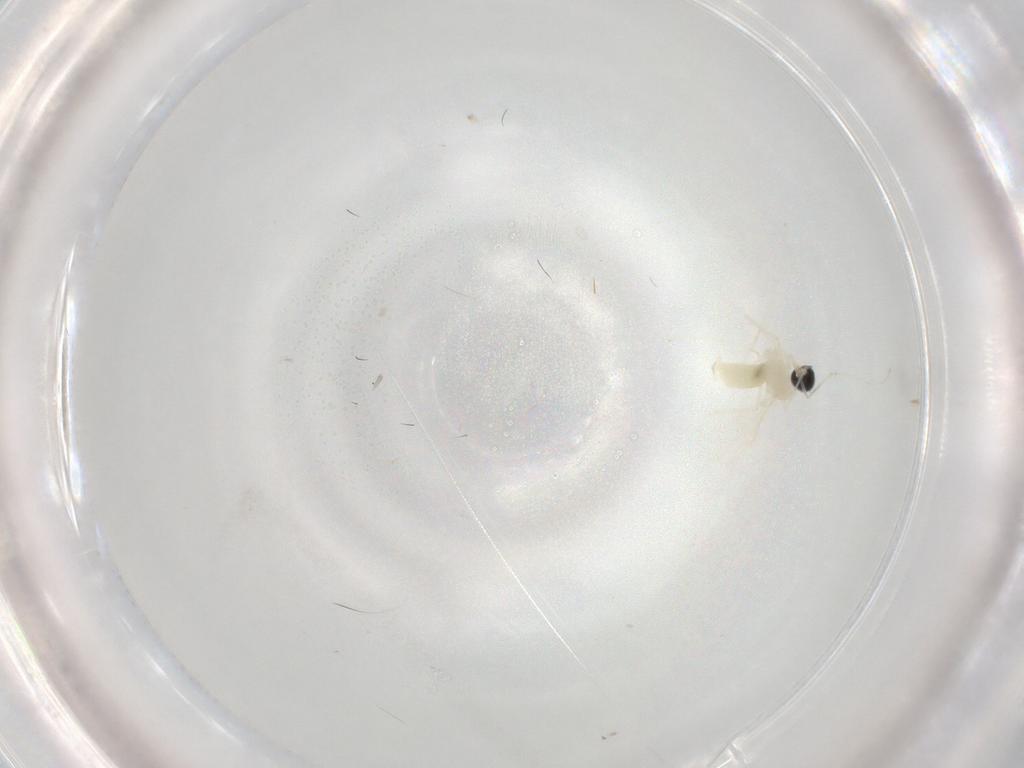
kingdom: Animalia
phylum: Arthropoda
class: Insecta
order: Diptera
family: Cecidomyiidae
